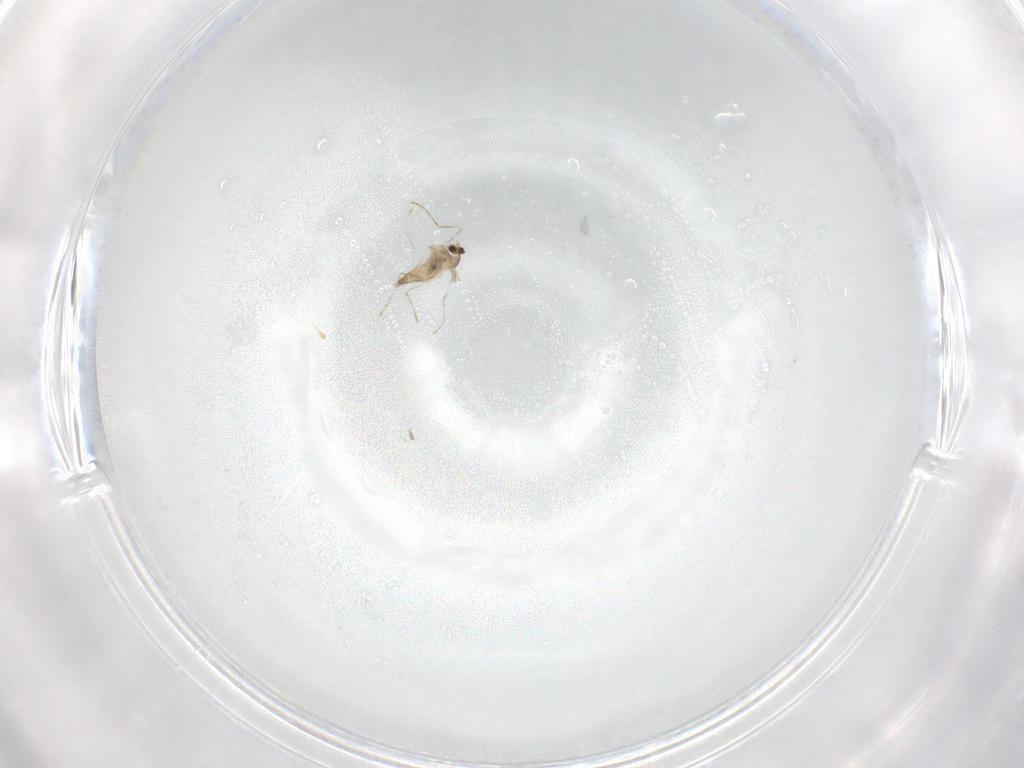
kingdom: Animalia
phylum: Arthropoda
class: Insecta
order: Diptera
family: Cecidomyiidae
